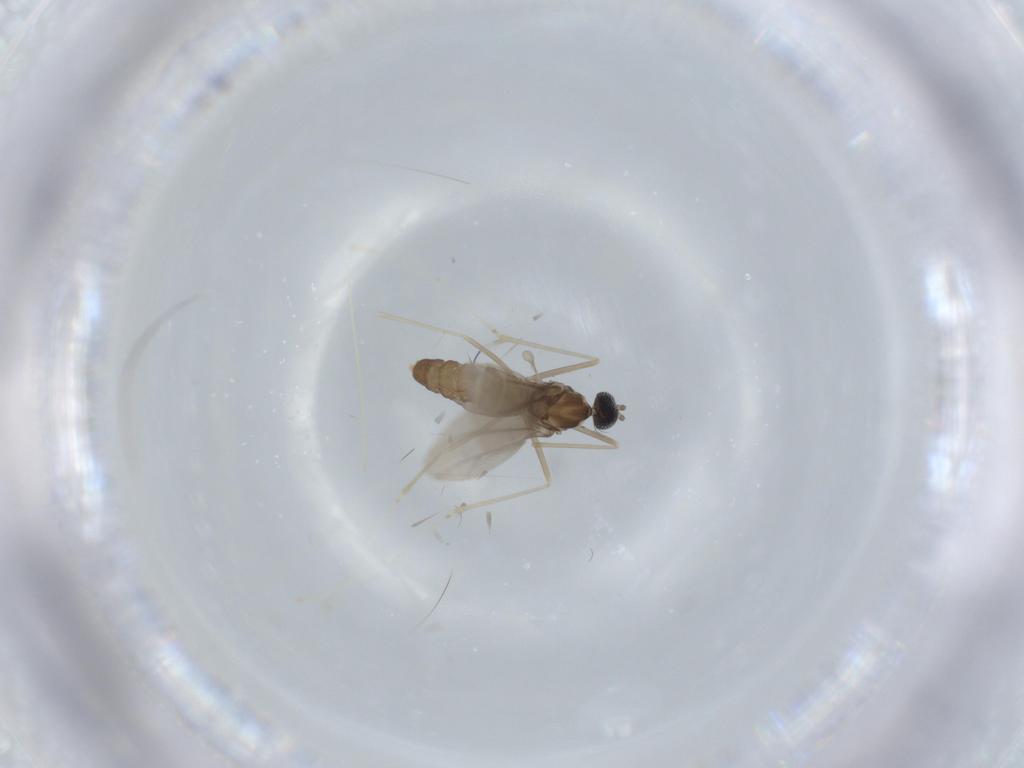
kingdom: Animalia
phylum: Arthropoda
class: Insecta
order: Diptera
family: Cecidomyiidae
